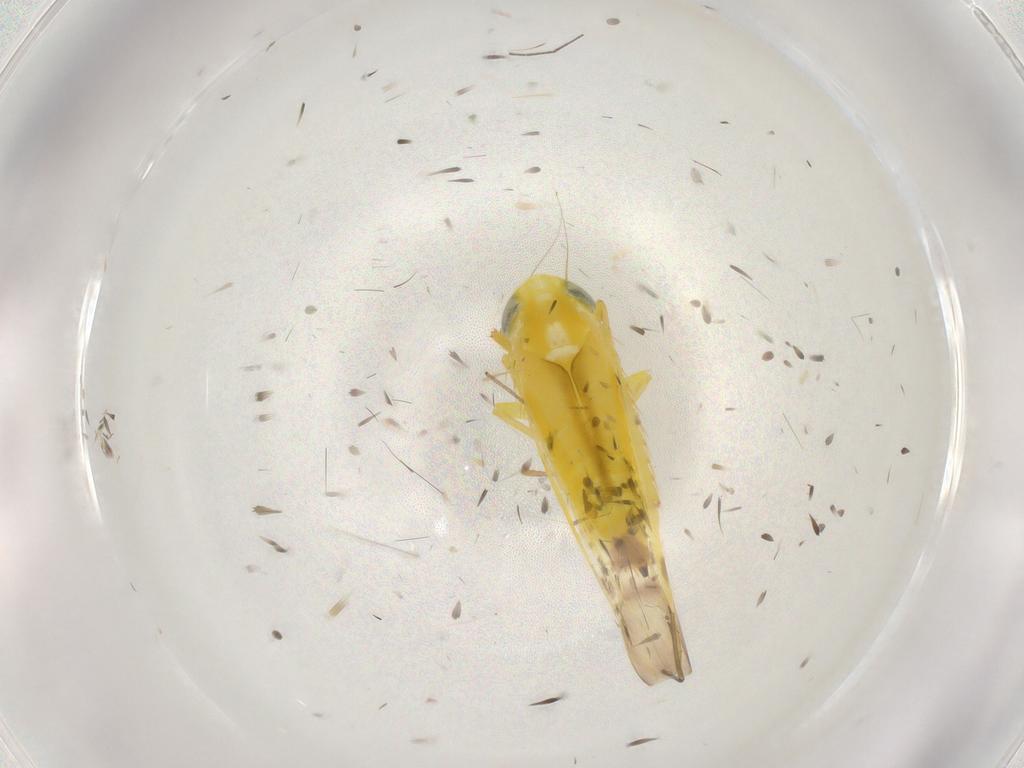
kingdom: Animalia
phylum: Arthropoda
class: Insecta
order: Hemiptera
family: Cicadellidae
